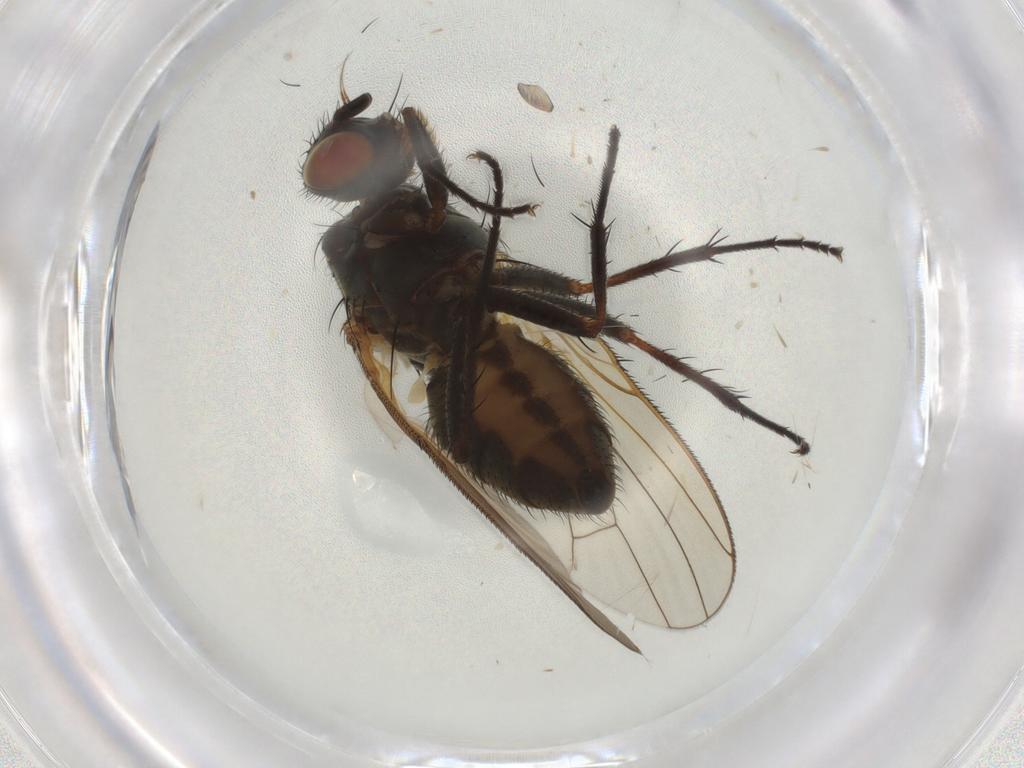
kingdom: Animalia
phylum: Arthropoda
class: Insecta
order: Diptera
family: Anthomyiidae
